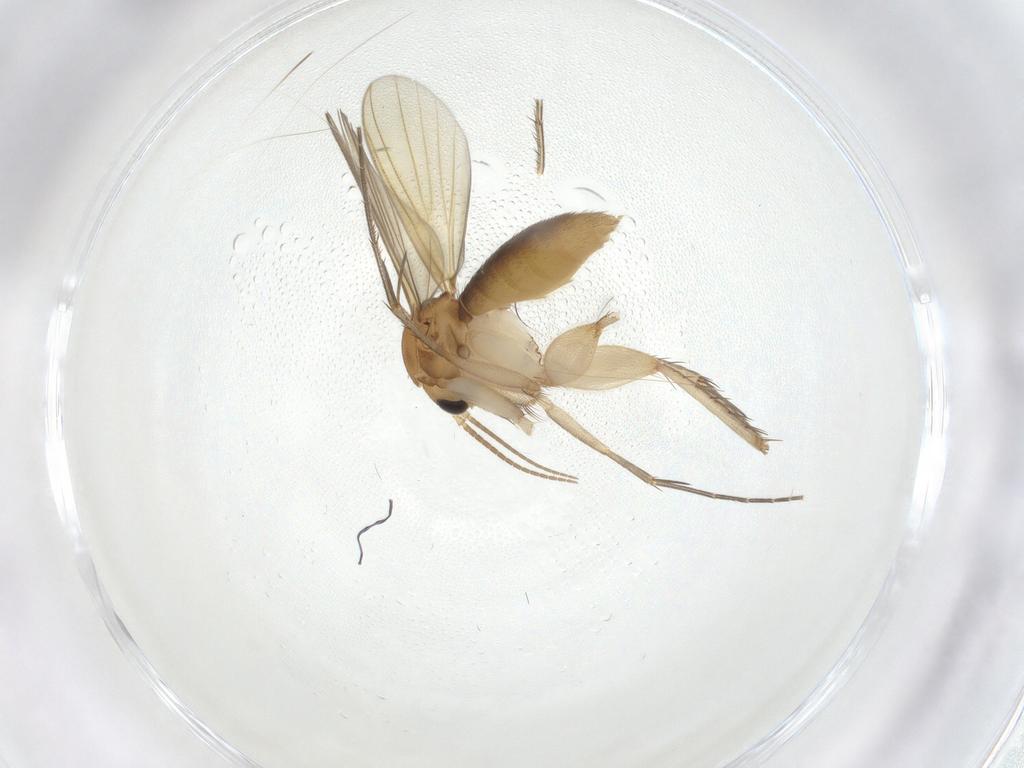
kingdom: Animalia
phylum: Arthropoda
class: Insecta
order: Diptera
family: Mycetophilidae
